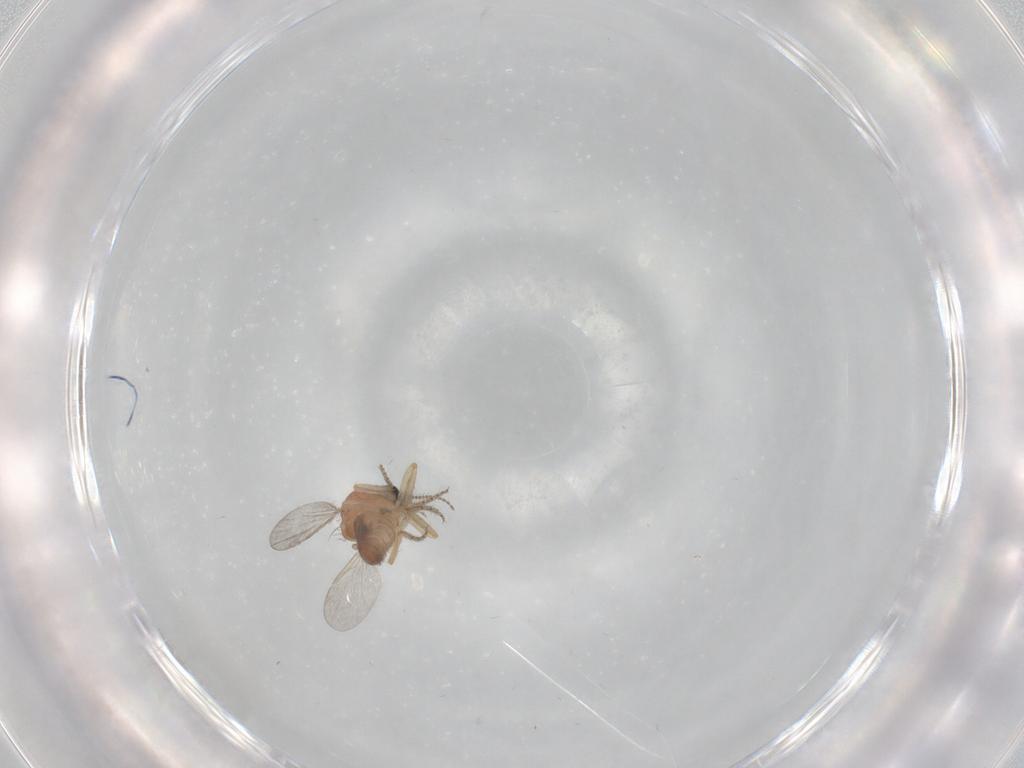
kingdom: Animalia
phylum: Arthropoda
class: Insecta
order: Diptera
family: Ceratopogonidae
